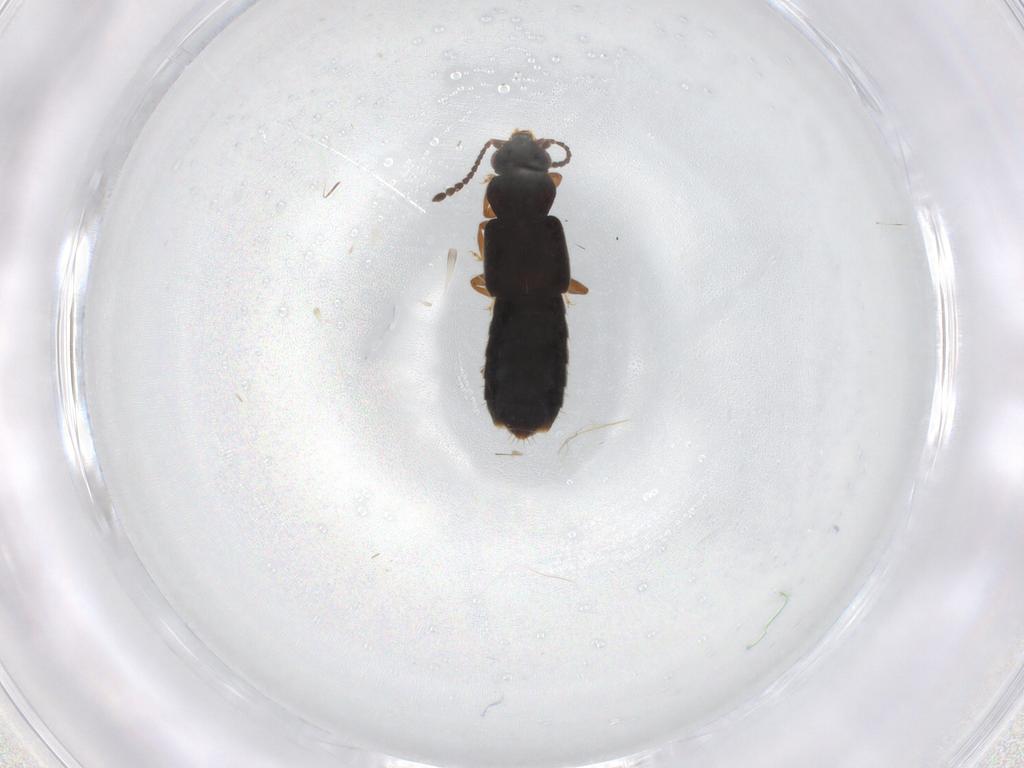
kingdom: Animalia
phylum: Arthropoda
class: Insecta
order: Coleoptera
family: Staphylinidae
